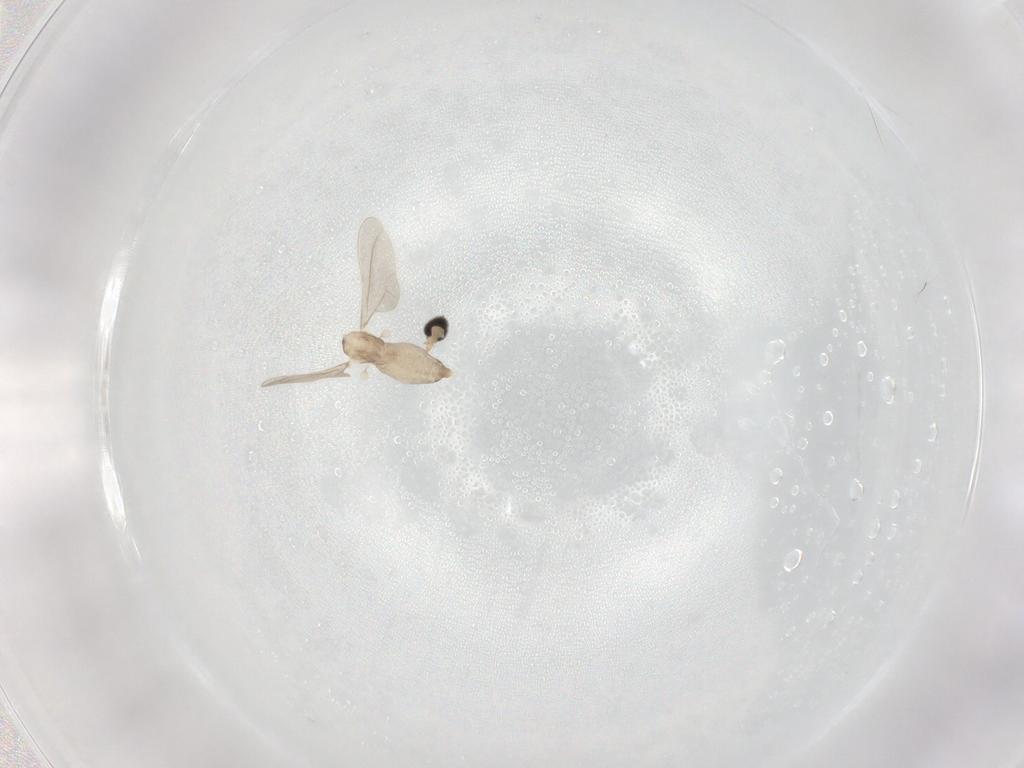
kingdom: Animalia
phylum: Arthropoda
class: Insecta
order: Diptera
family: Cecidomyiidae
